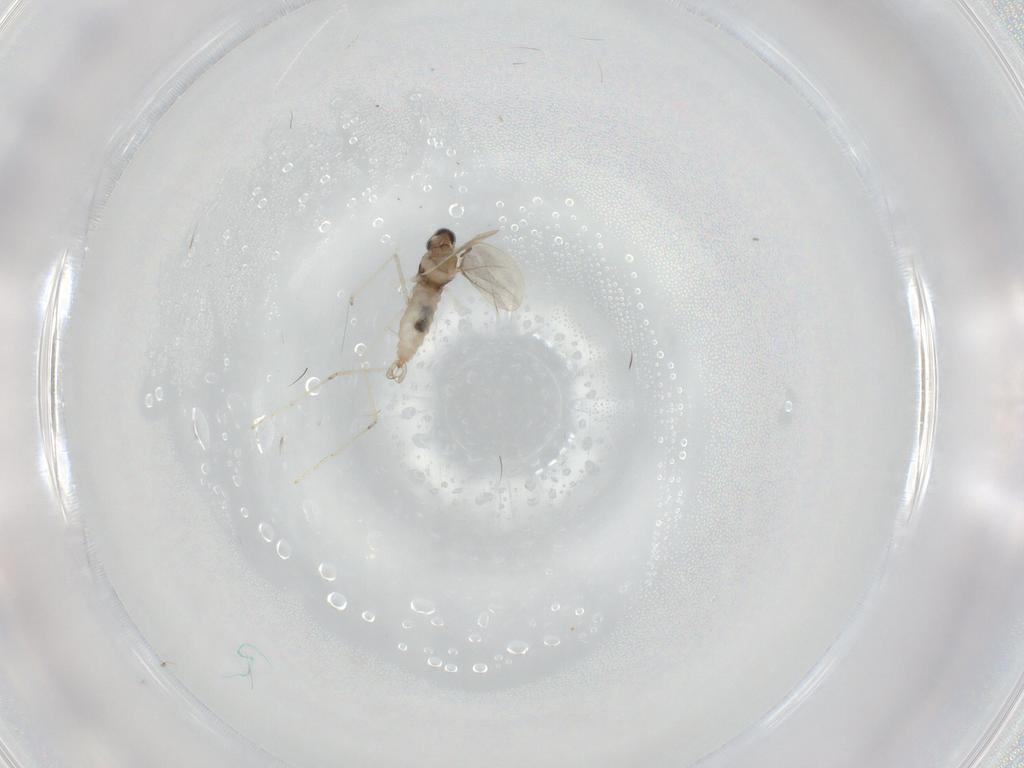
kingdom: Animalia
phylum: Arthropoda
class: Insecta
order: Diptera
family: Cecidomyiidae
